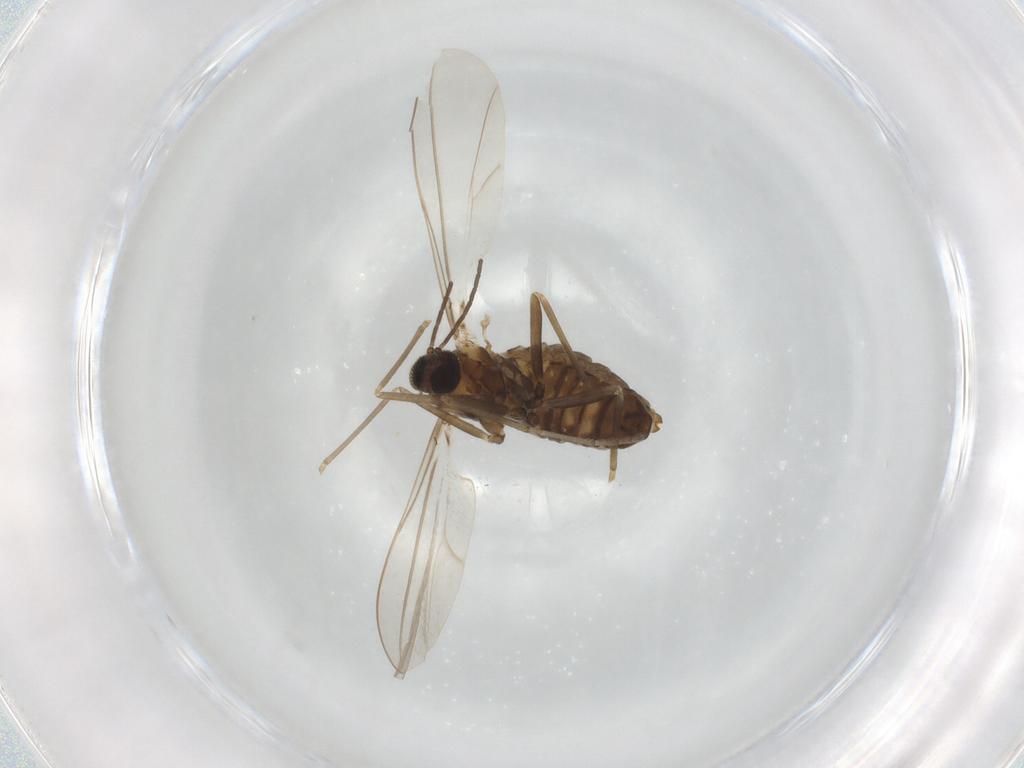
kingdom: Animalia
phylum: Arthropoda
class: Insecta
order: Diptera
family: Cecidomyiidae
